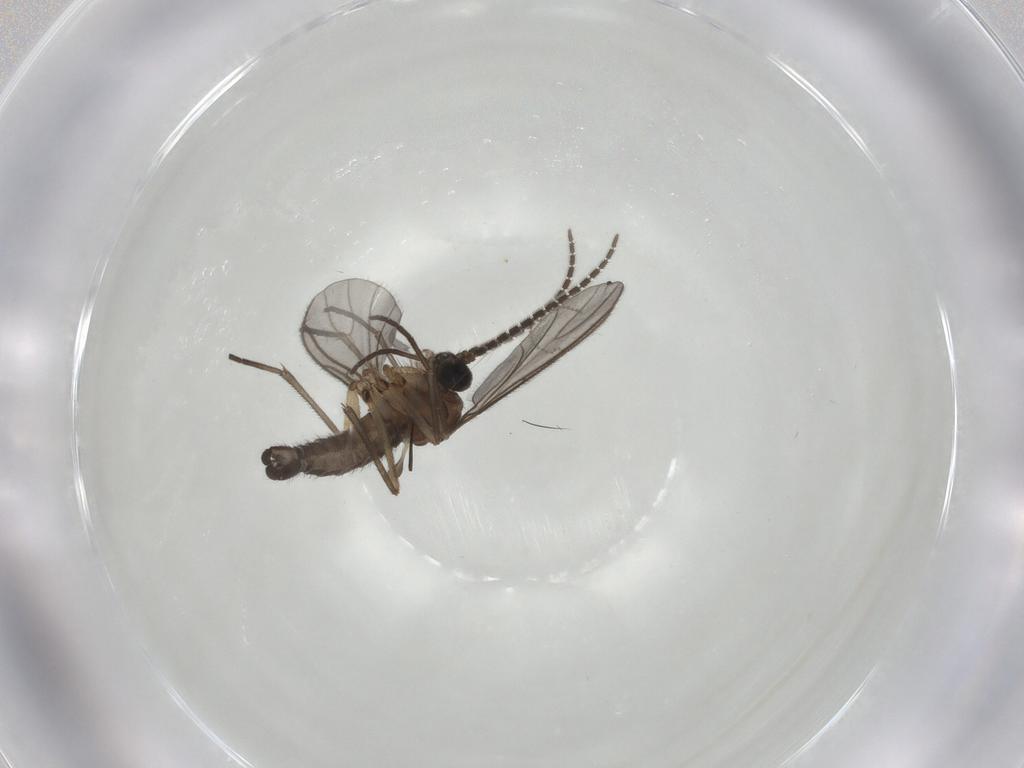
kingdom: Animalia
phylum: Arthropoda
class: Insecta
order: Diptera
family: Sciaridae
